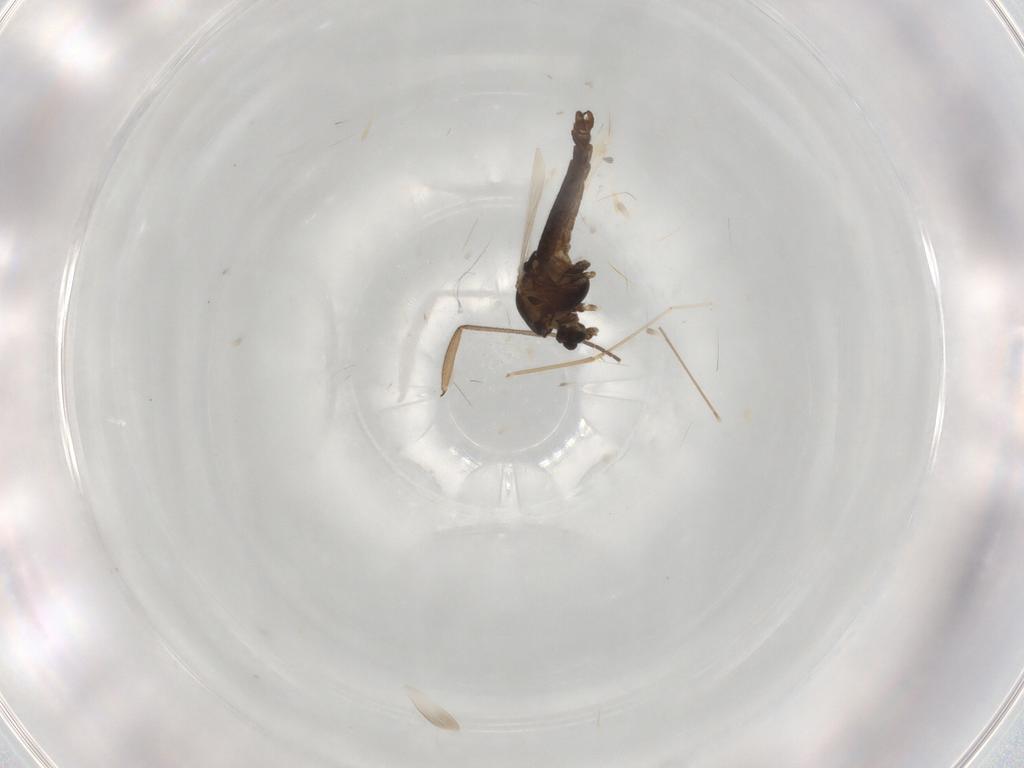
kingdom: Animalia
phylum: Arthropoda
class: Insecta
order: Diptera
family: Chironomidae
